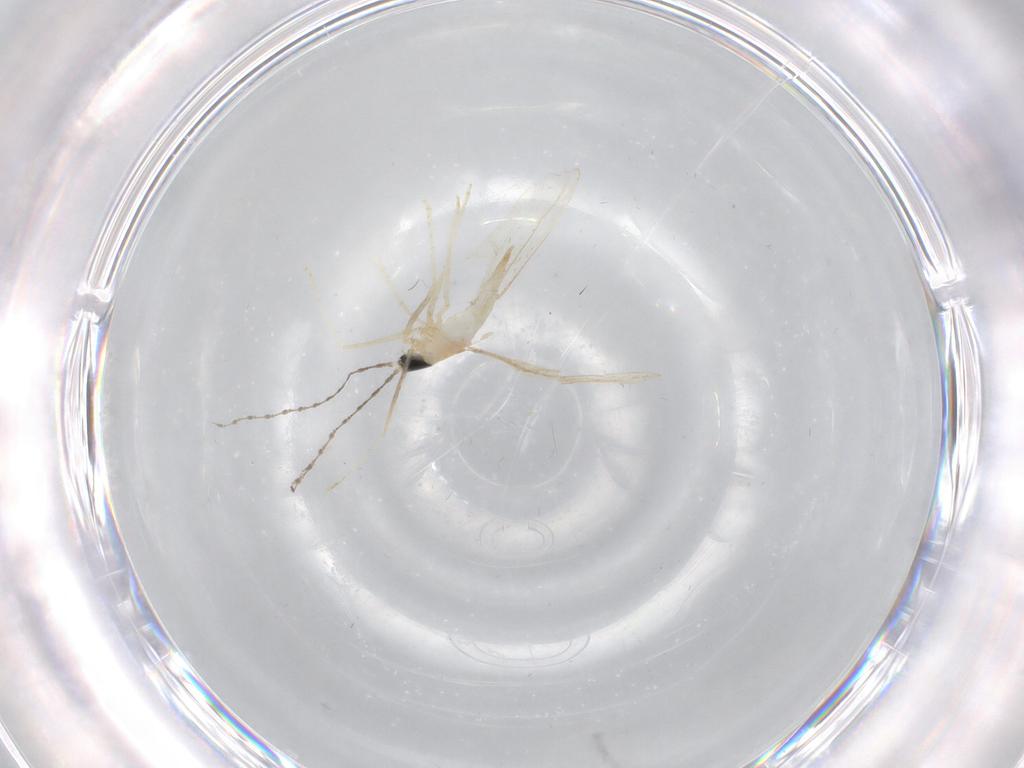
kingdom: Animalia
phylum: Arthropoda
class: Insecta
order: Diptera
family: Cecidomyiidae
